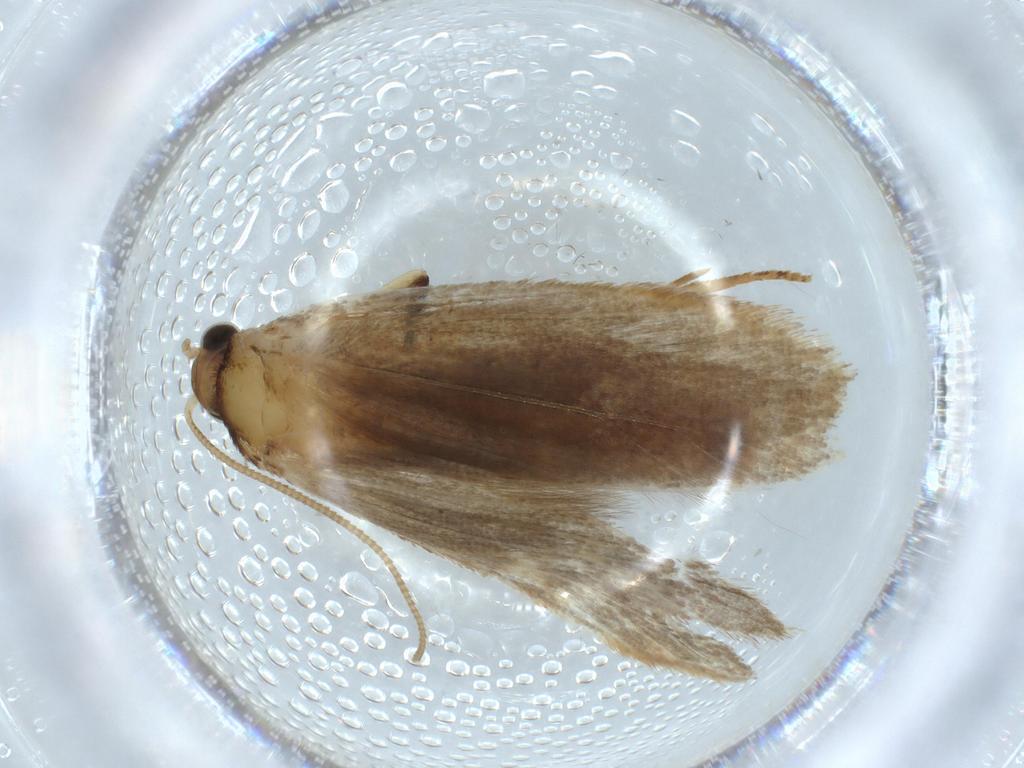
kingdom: Animalia
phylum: Arthropoda
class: Insecta
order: Lepidoptera
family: Tineidae
